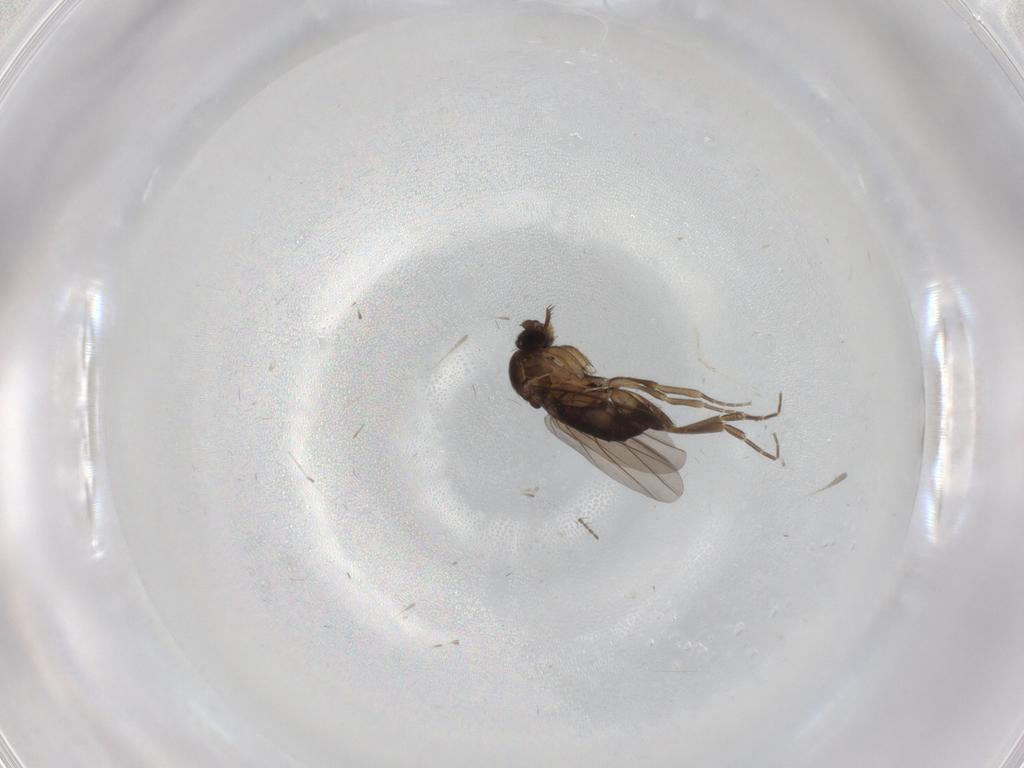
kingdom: Animalia
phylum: Arthropoda
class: Insecta
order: Diptera
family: Cecidomyiidae
